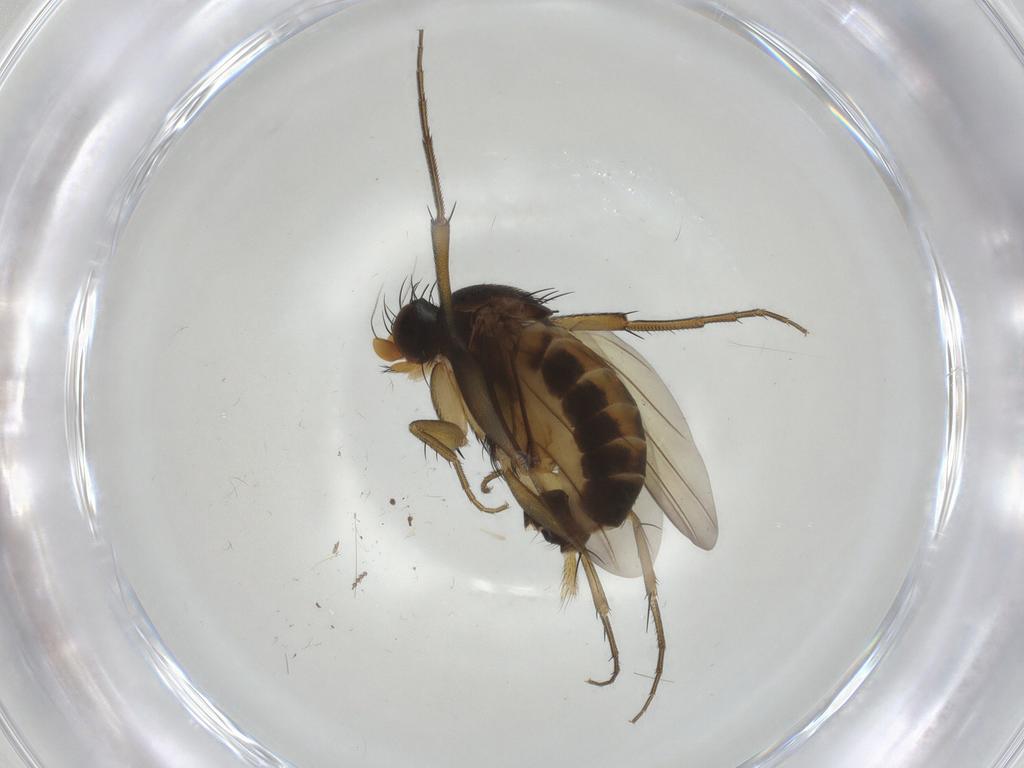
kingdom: Animalia
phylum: Arthropoda
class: Insecta
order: Diptera
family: Phoridae
